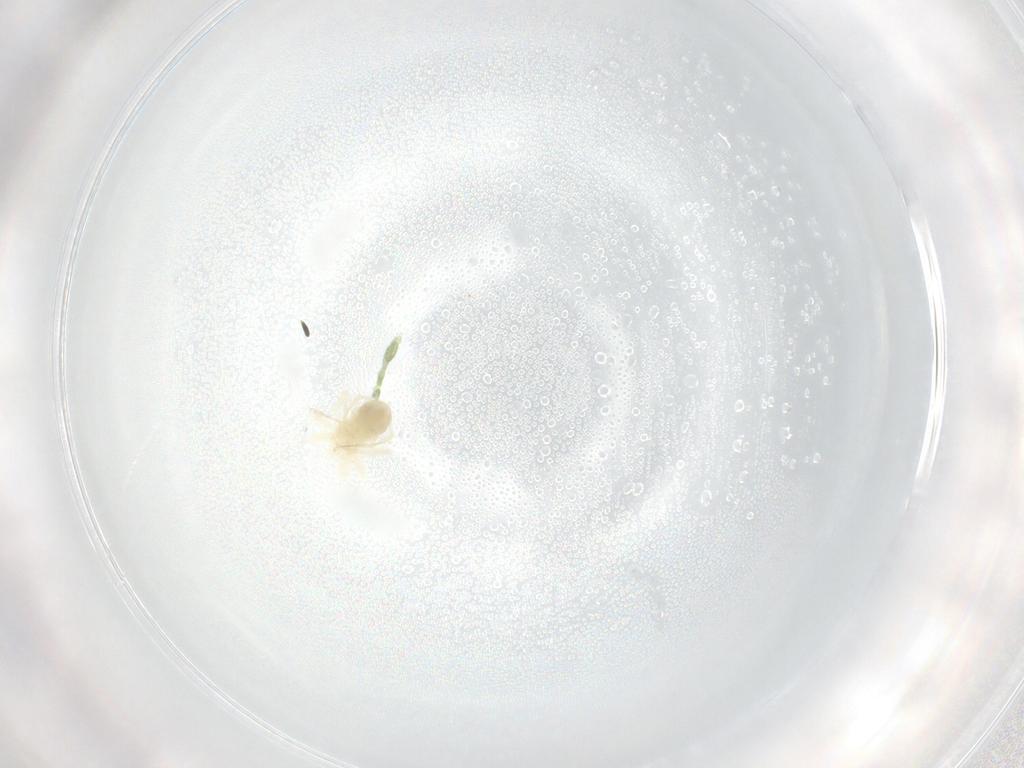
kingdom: Animalia
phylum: Arthropoda
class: Arachnida
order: Trombidiformes
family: Anystidae
